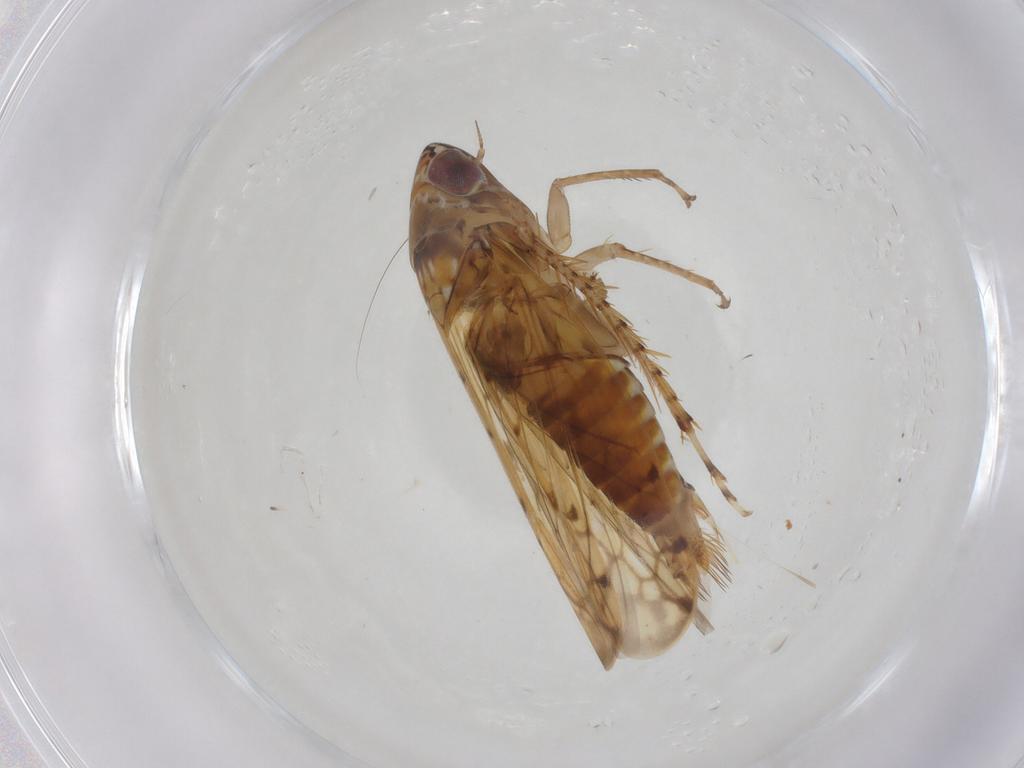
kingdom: Animalia
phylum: Arthropoda
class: Insecta
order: Hemiptera
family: Cicadellidae
